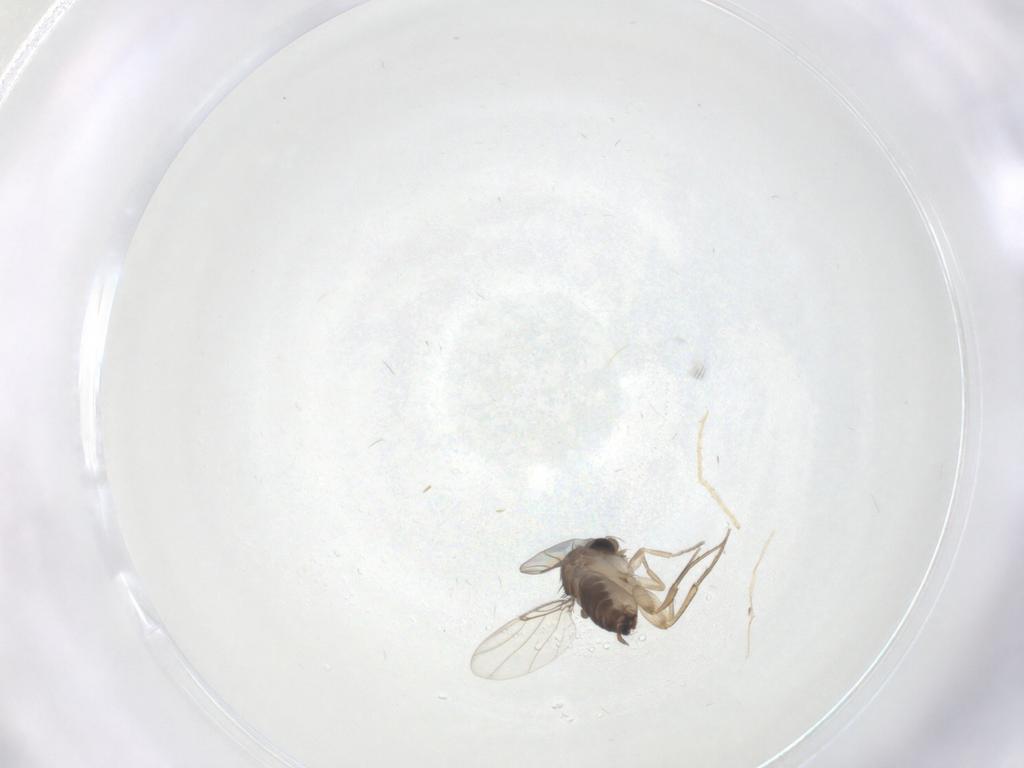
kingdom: Animalia
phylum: Arthropoda
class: Insecta
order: Diptera
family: Phoridae
